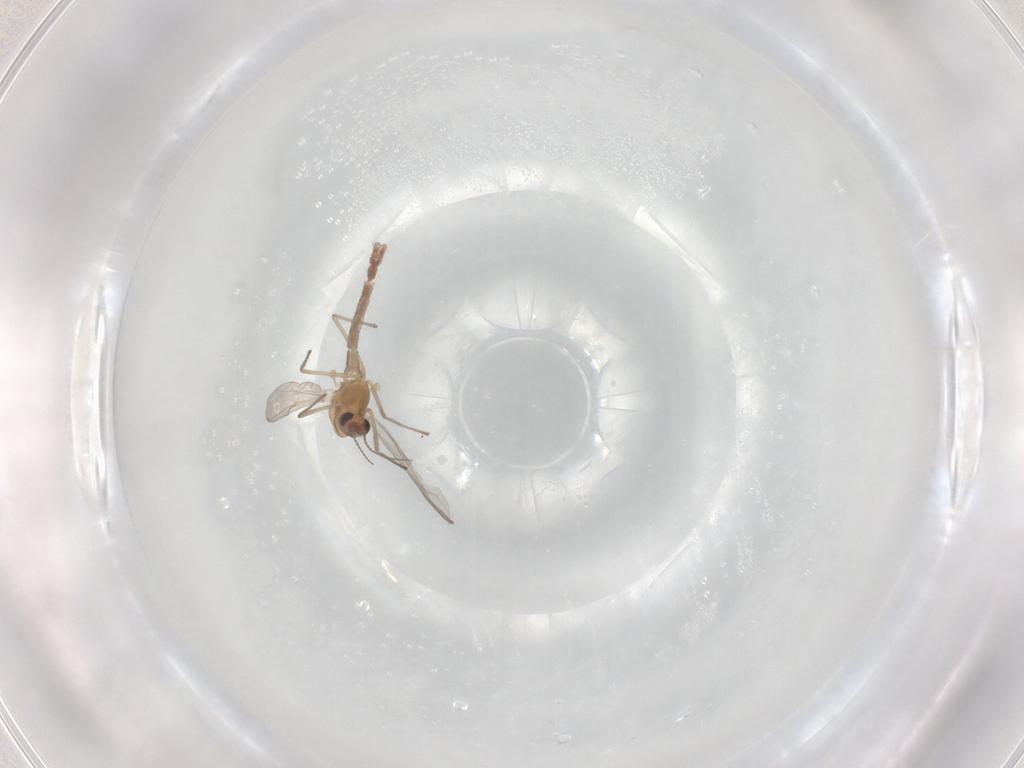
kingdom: Animalia
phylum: Arthropoda
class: Insecta
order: Diptera
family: Chironomidae
